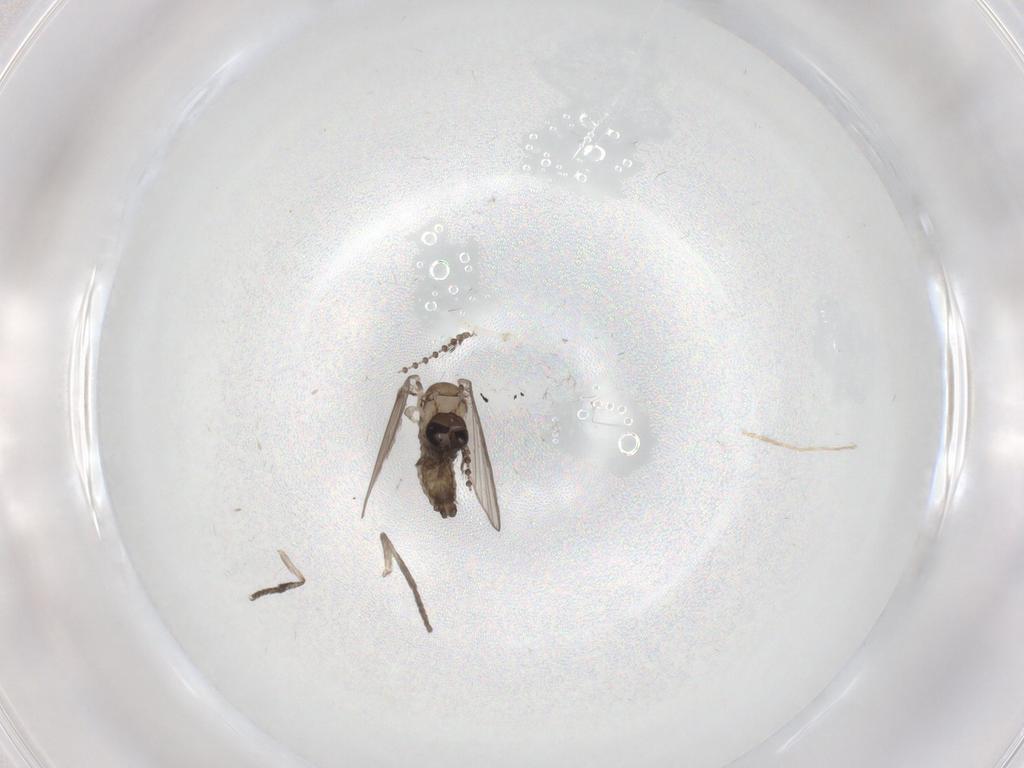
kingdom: Animalia
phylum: Arthropoda
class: Insecta
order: Diptera
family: Psychodidae
